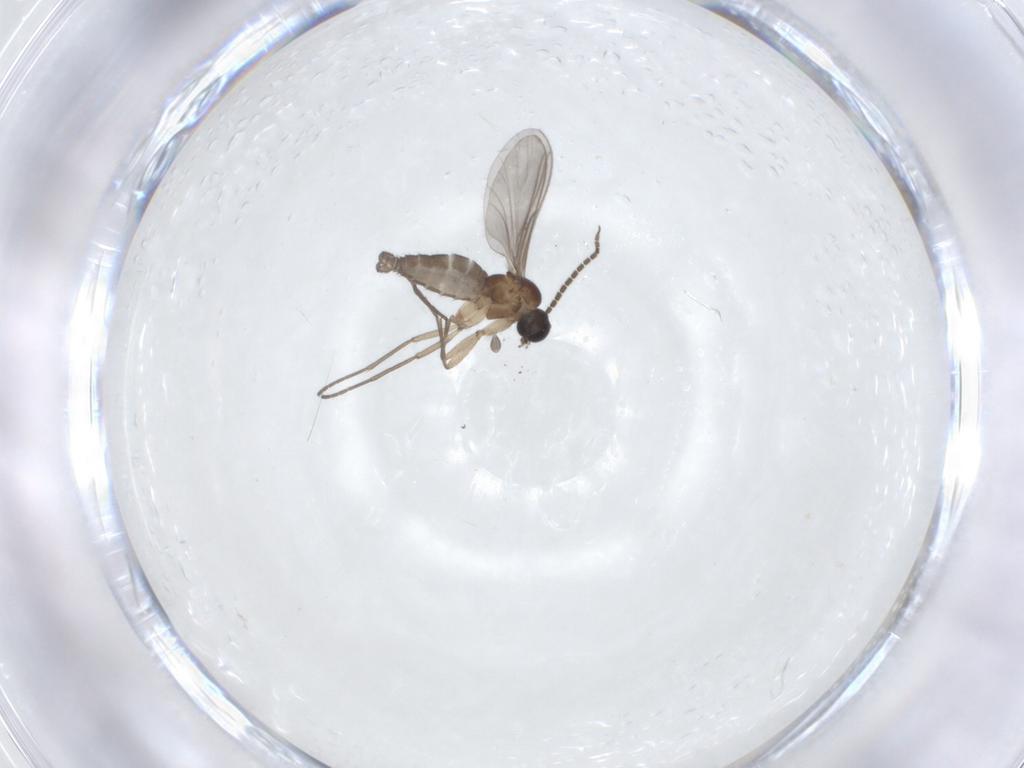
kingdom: Animalia
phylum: Arthropoda
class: Insecta
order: Diptera
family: Sciaridae
